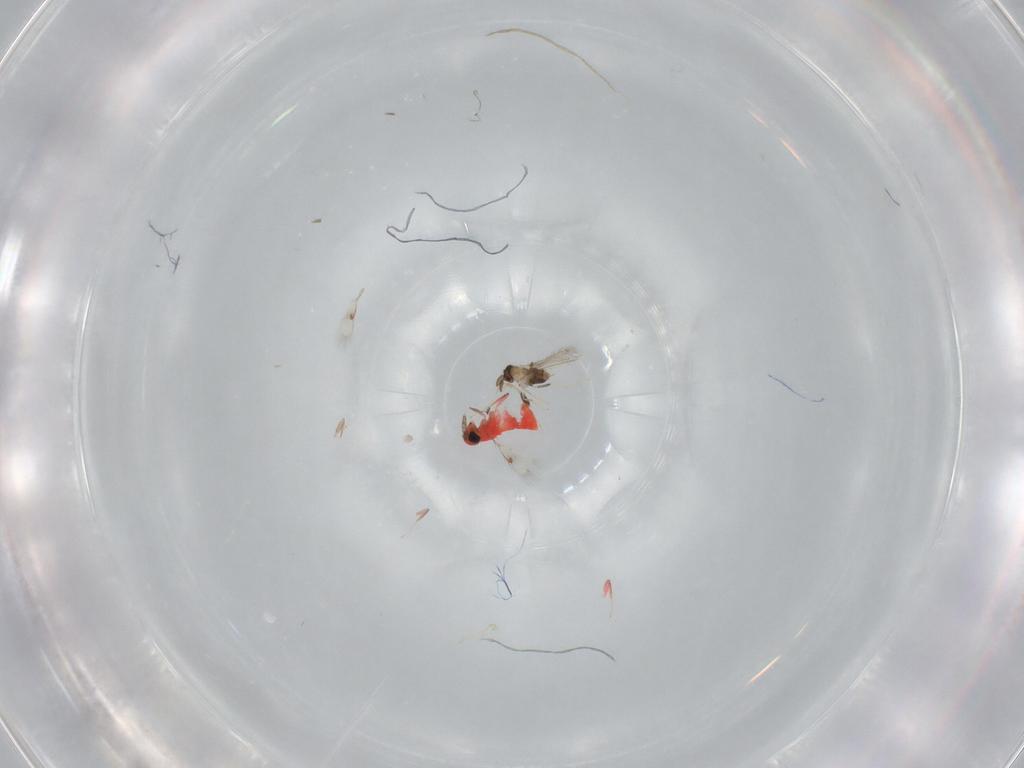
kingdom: Animalia
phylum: Arthropoda
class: Insecta
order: Hymenoptera
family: Trichogrammatidae
